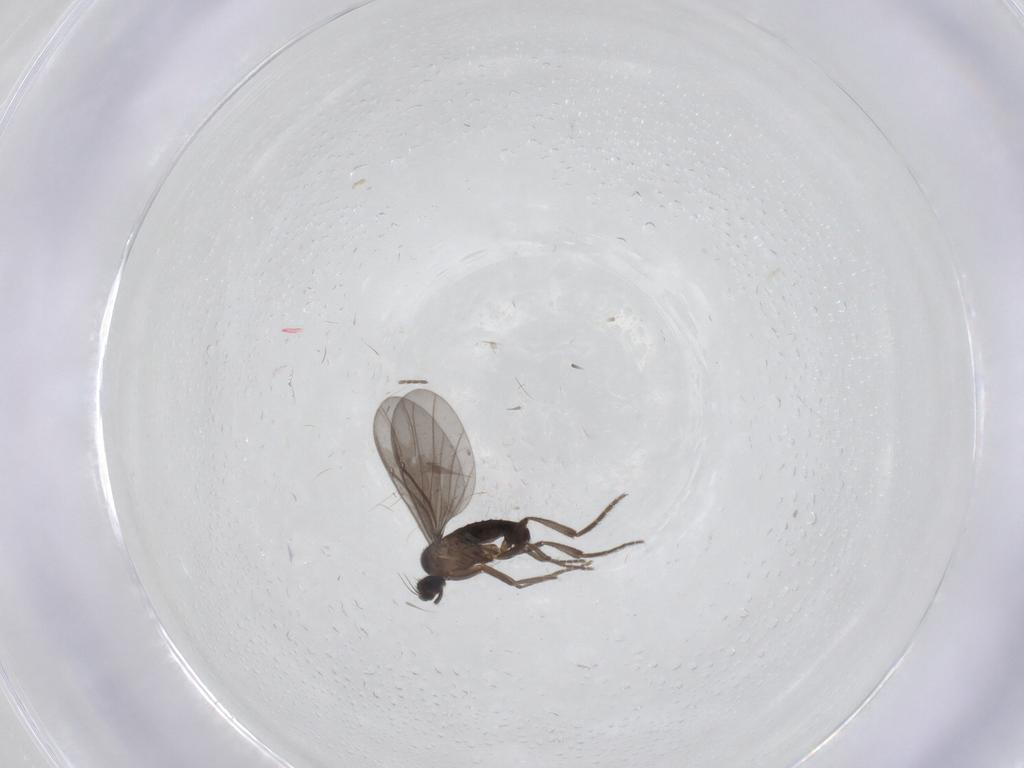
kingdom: Animalia
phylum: Arthropoda
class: Insecta
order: Diptera
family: Phoridae
